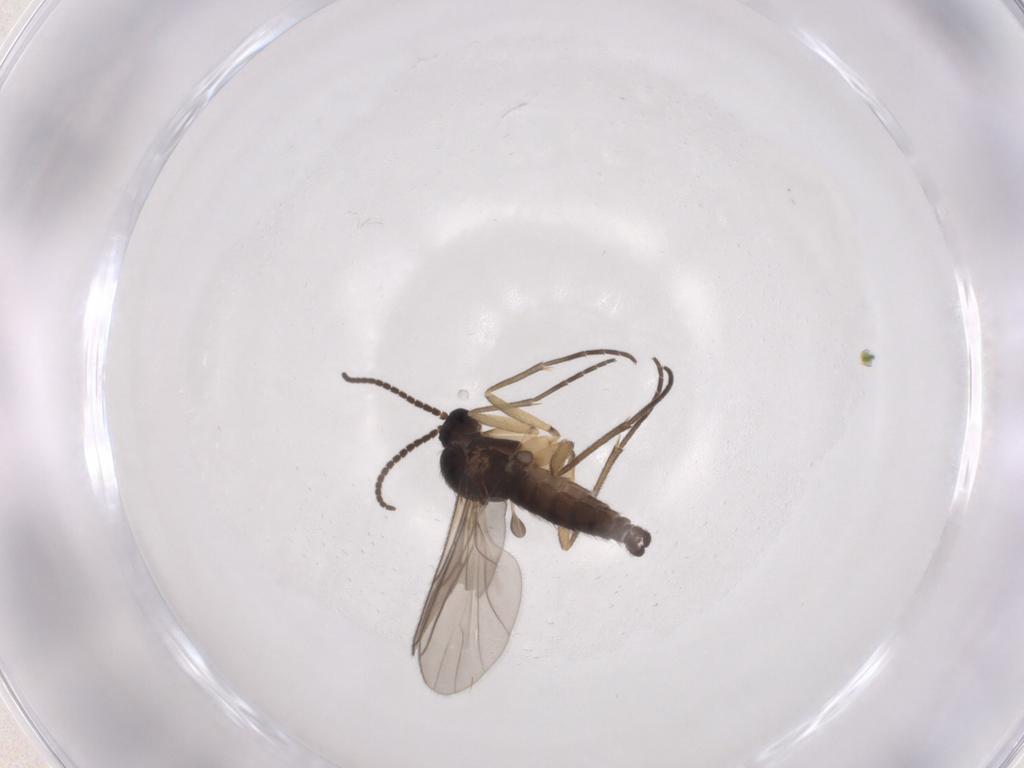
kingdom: Animalia
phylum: Arthropoda
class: Insecta
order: Diptera
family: Sciaridae
